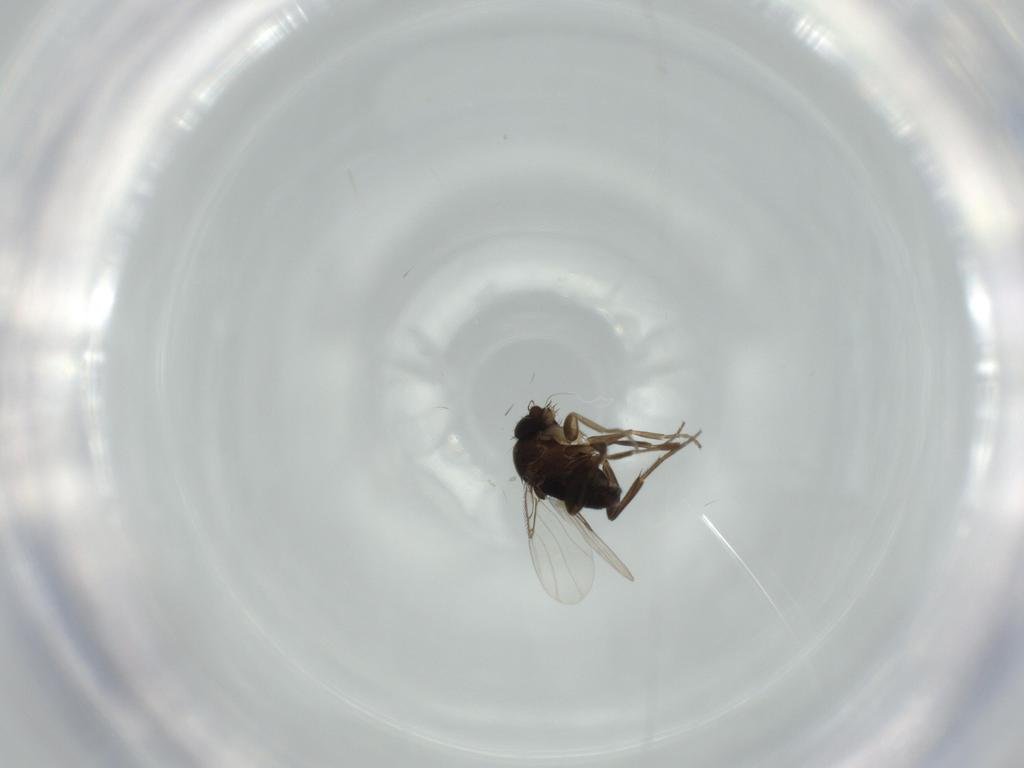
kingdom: Animalia
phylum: Arthropoda
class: Insecta
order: Diptera
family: Phoridae
